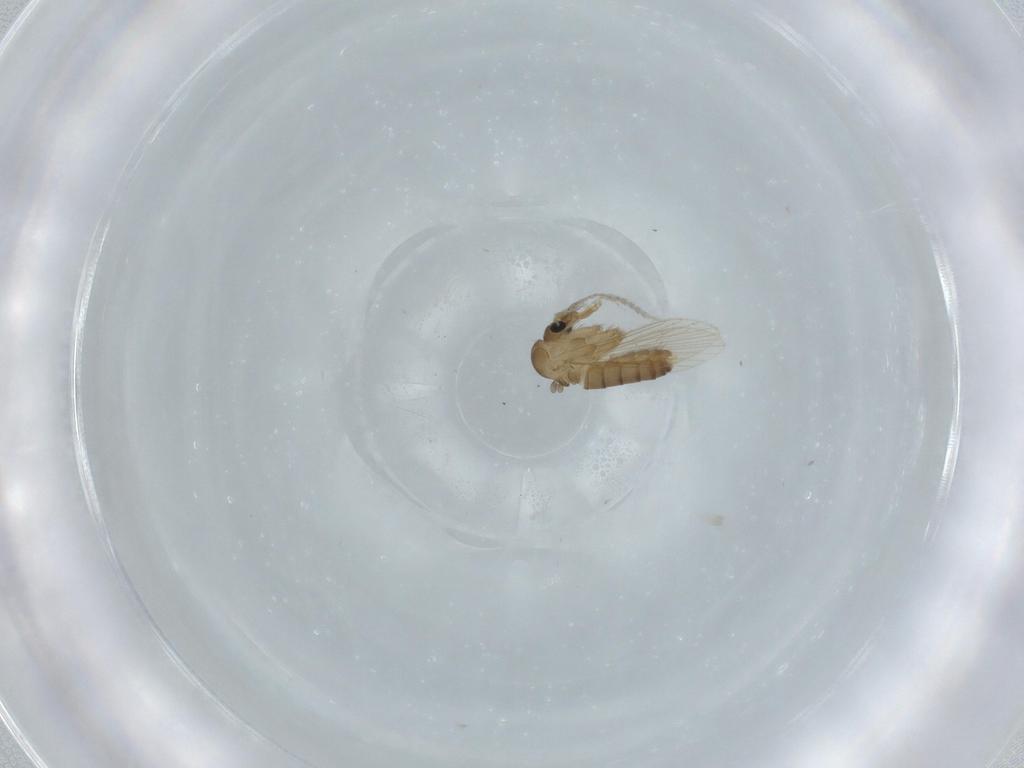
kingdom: Animalia
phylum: Arthropoda
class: Insecta
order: Diptera
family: Psychodidae
